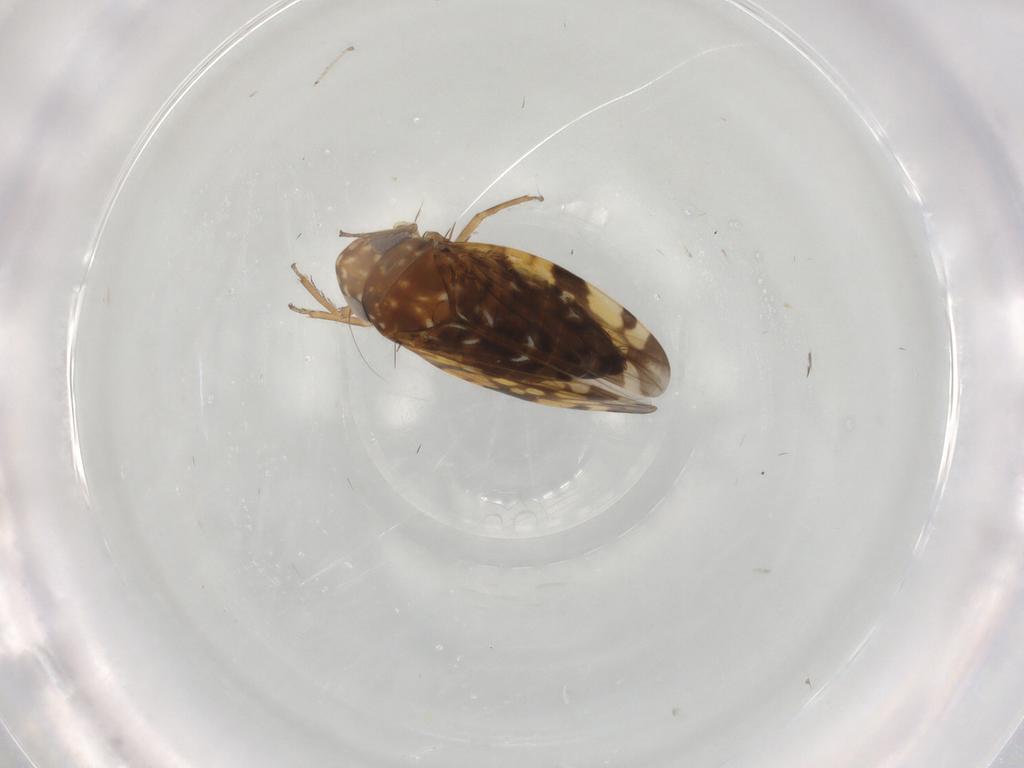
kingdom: Animalia
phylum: Arthropoda
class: Insecta
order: Hemiptera
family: Cicadellidae
